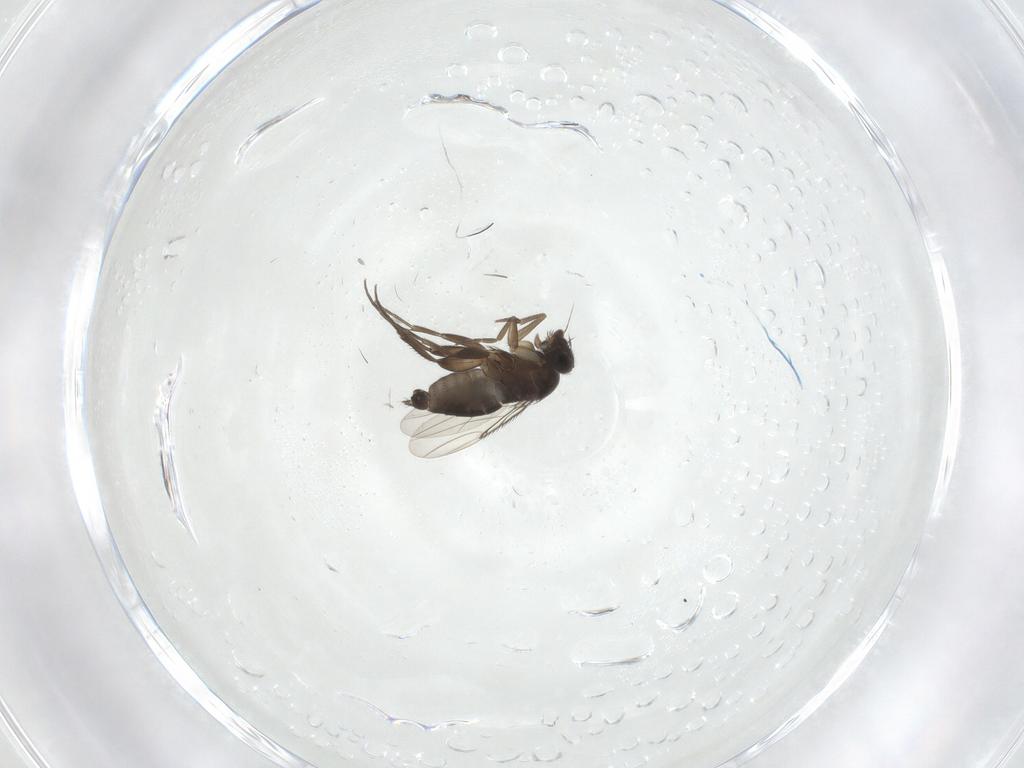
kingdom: Animalia
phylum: Arthropoda
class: Insecta
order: Diptera
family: Phoridae
